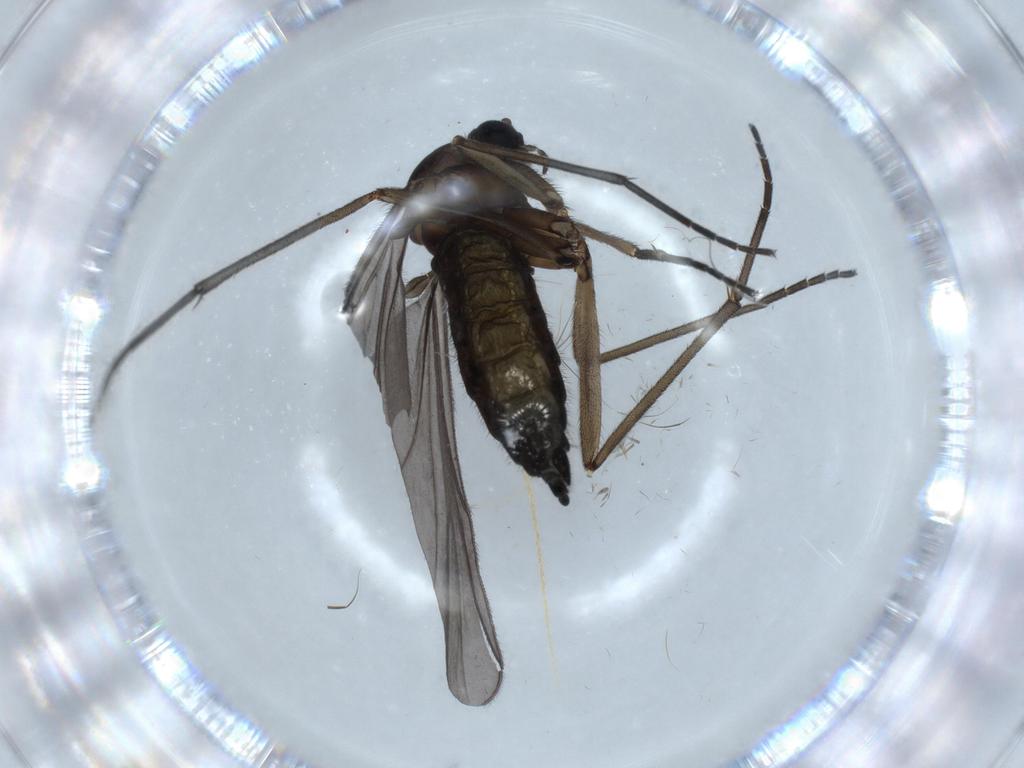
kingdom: Animalia
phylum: Arthropoda
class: Insecta
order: Diptera
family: Sciaridae
